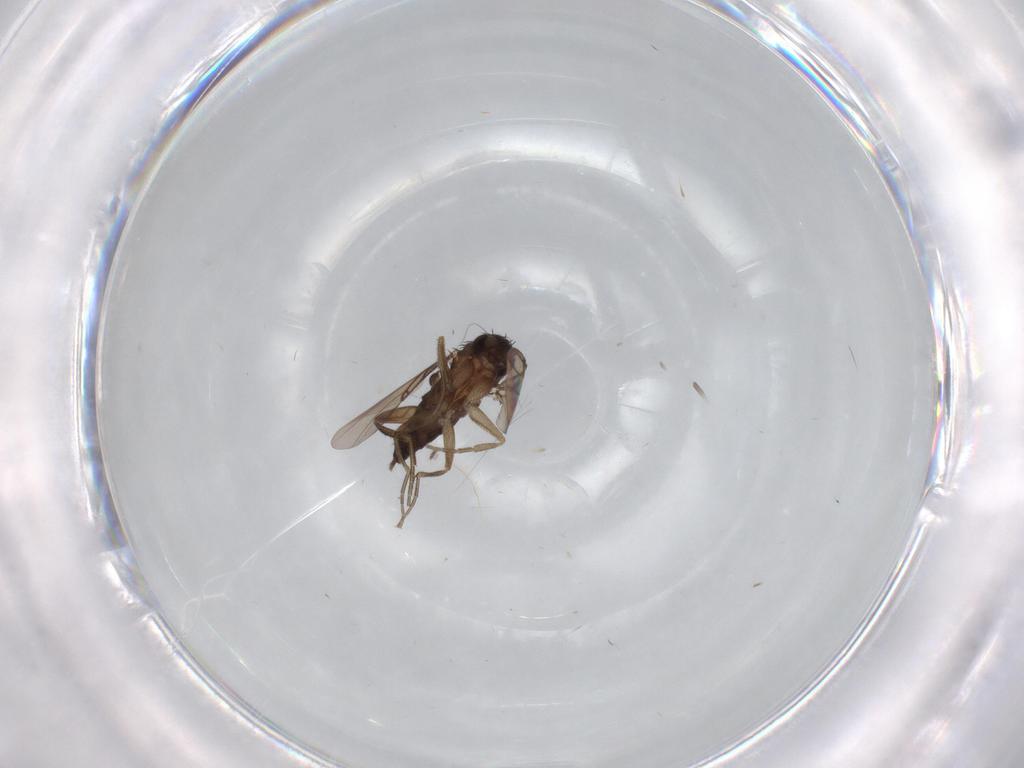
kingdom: Animalia
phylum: Arthropoda
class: Insecta
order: Diptera
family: Phoridae
